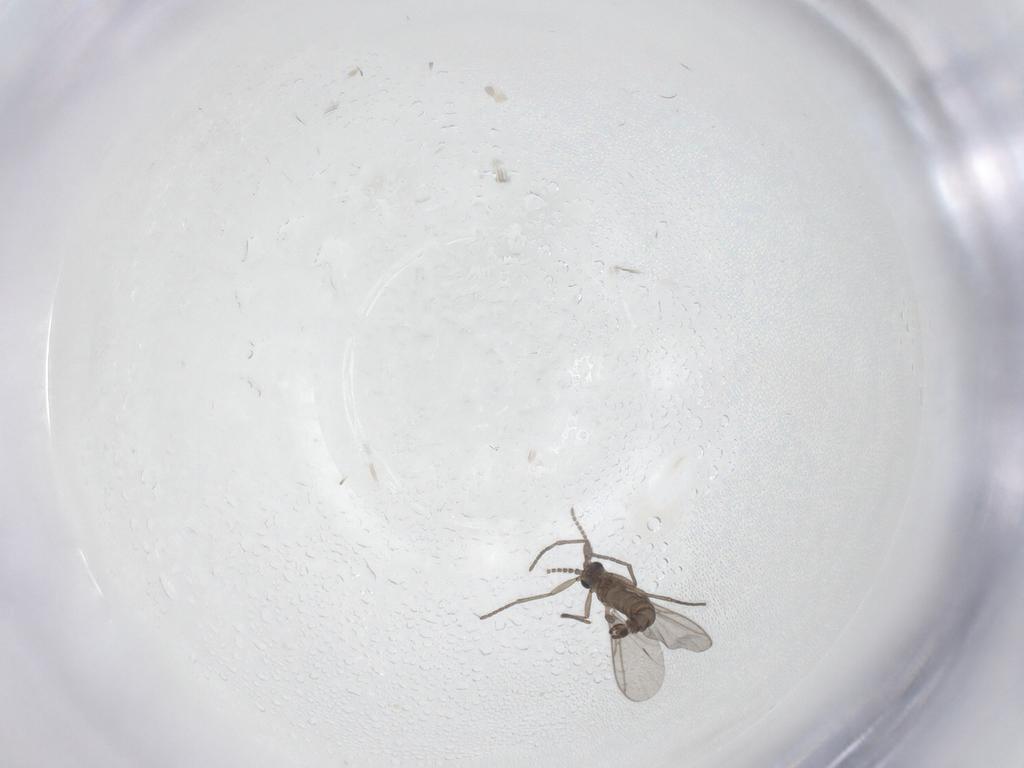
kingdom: Animalia
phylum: Arthropoda
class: Insecta
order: Diptera
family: Sciaridae
